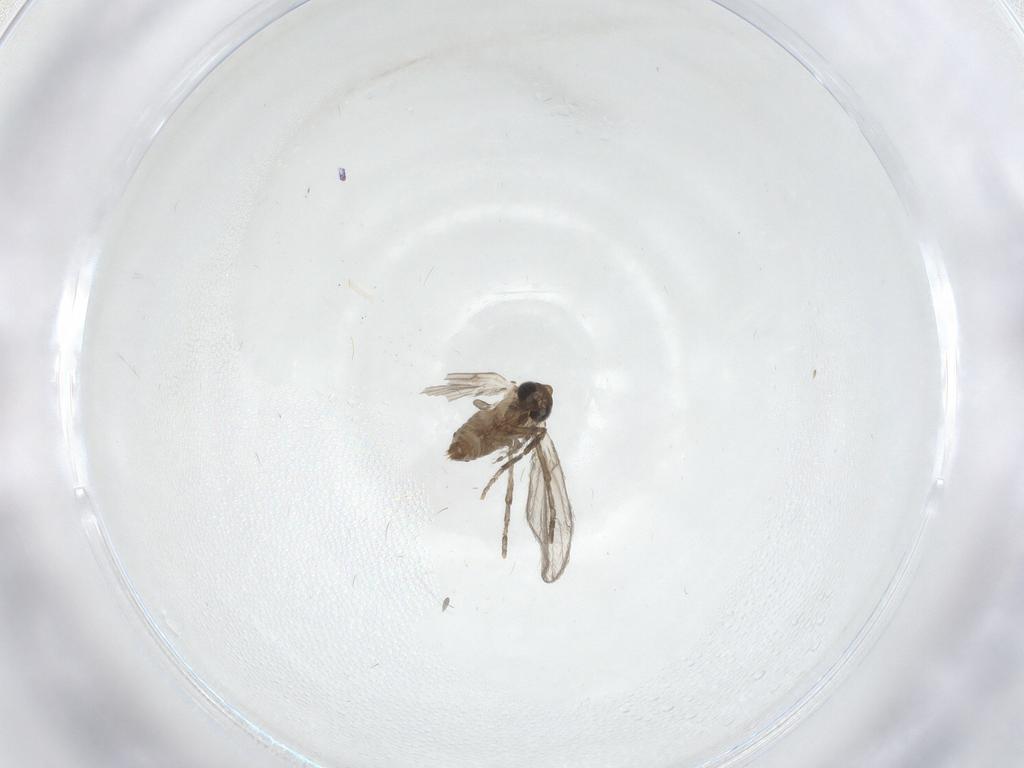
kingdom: Animalia
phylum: Arthropoda
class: Insecta
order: Diptera
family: Psychodidae
